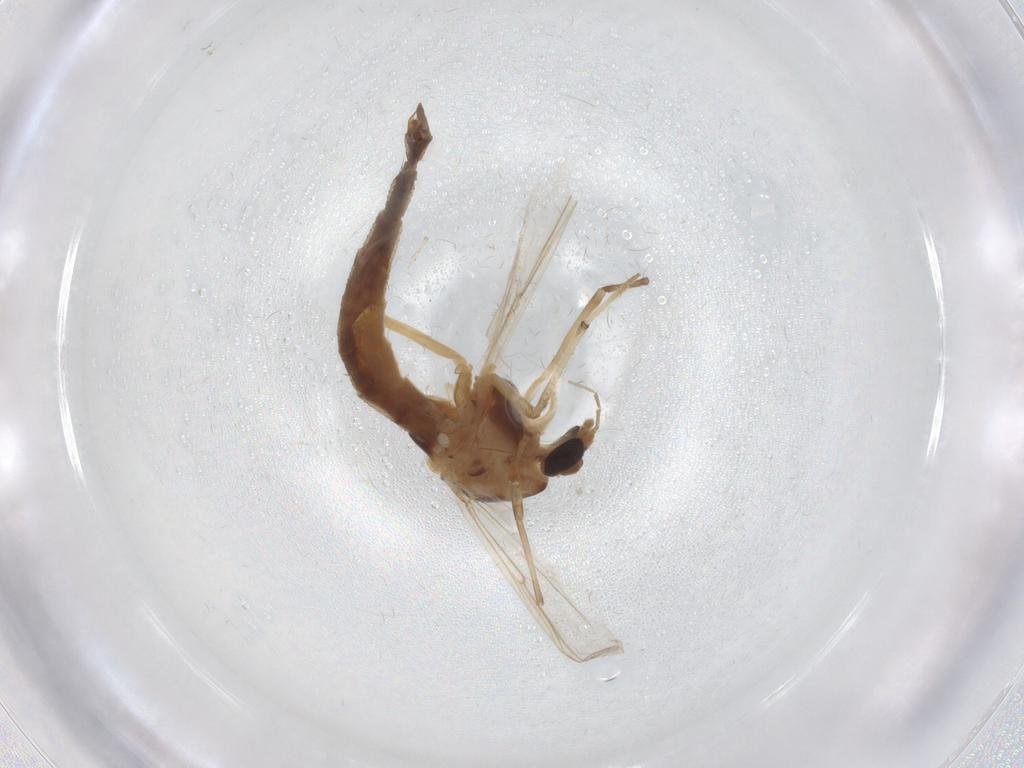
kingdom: Animalia
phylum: Arthropoda
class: Insecta
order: Diptera
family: Chironomidae
